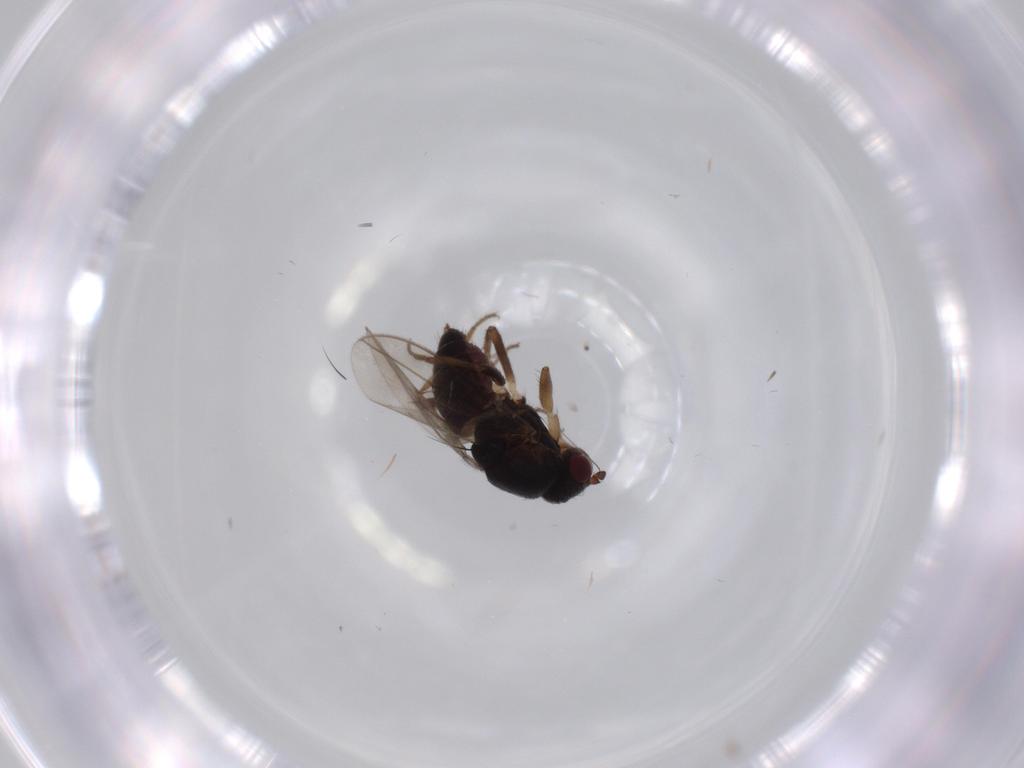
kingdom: Animalia
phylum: Arthropoda
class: Insecta
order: Diptera
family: Sphaeroceridae
